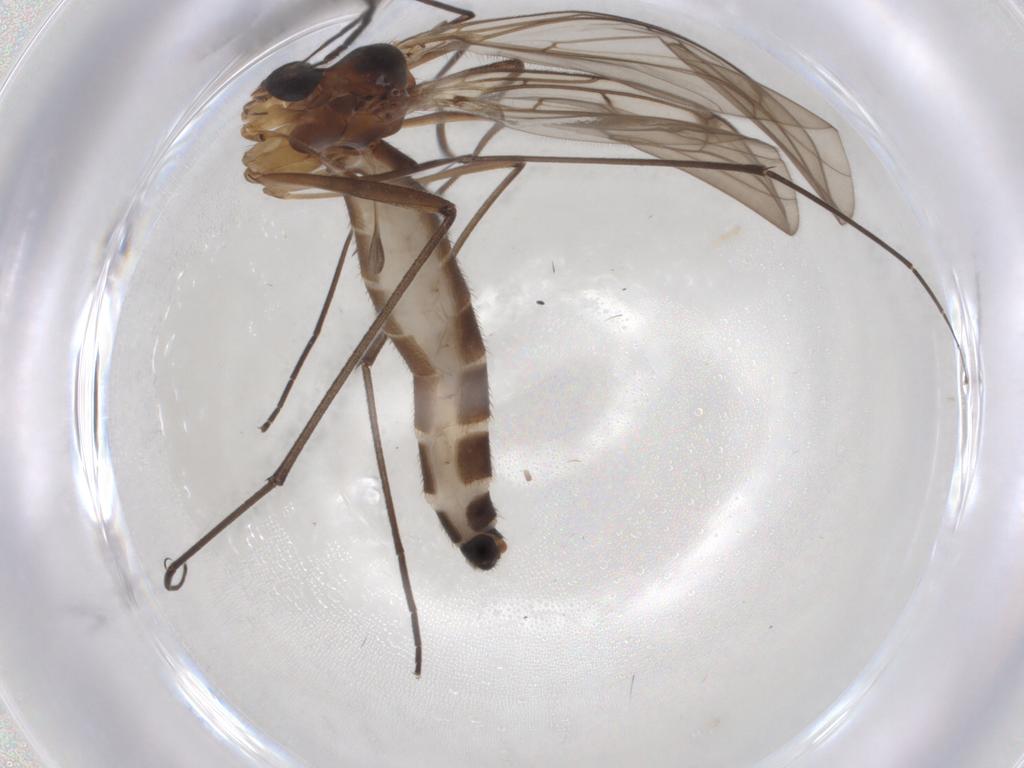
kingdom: Animalia
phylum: Arthropoda
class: Insecta
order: Diptera
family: Bolitophilidae
